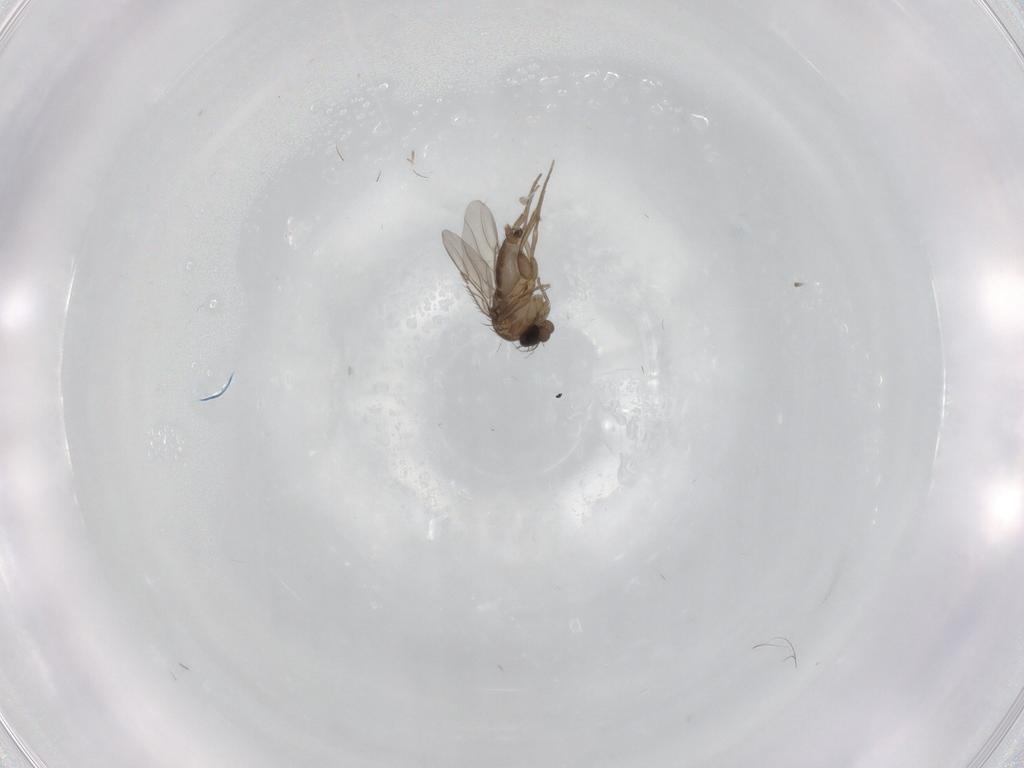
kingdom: Animalia
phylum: Arthropoda
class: Insecta
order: Diptera
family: Phoridae
